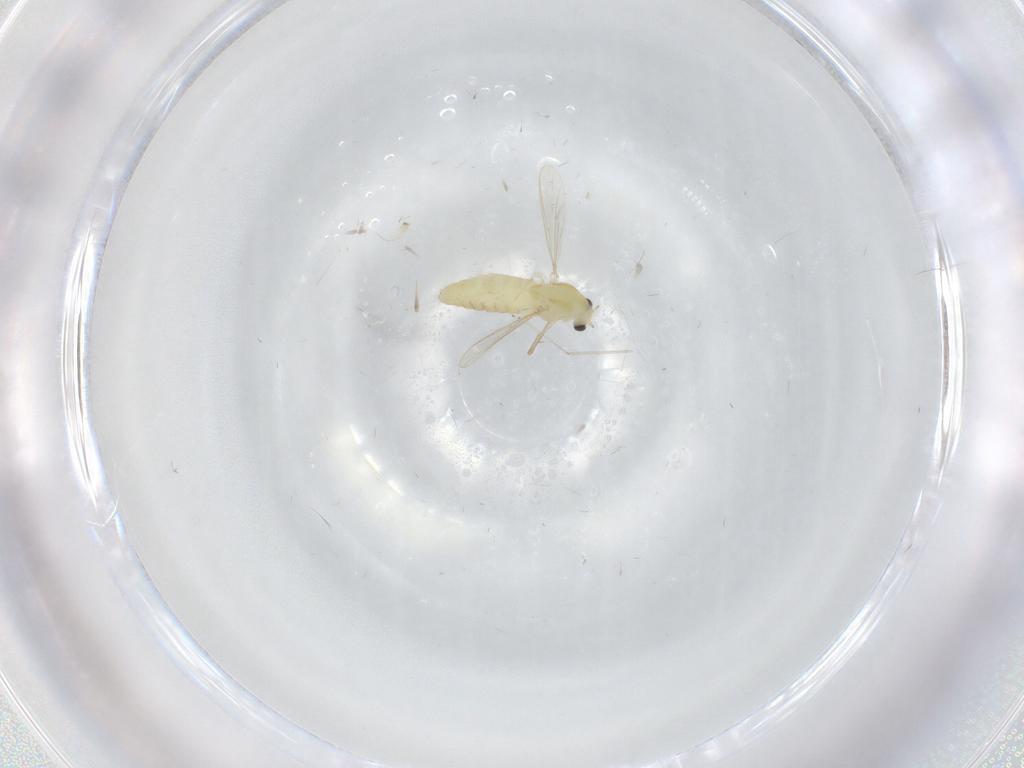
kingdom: Animalia
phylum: Arthropoda
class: Insecta
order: Diptera
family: Chironomidae
